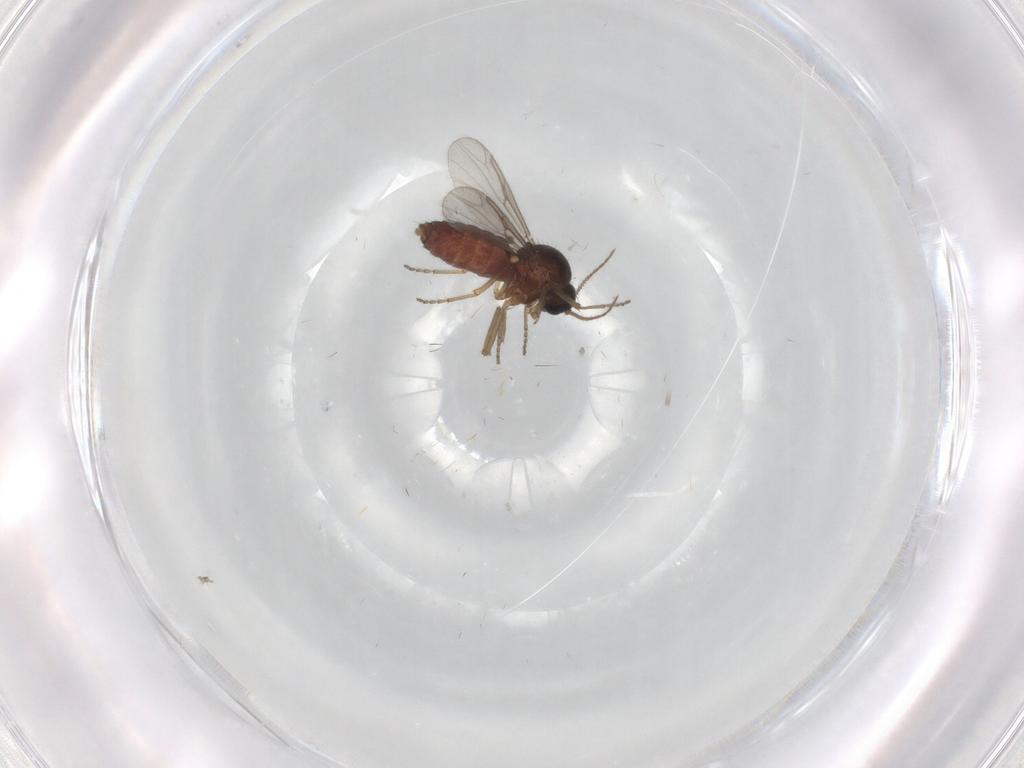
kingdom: Animalia
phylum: Arthropoda
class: Insecta
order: Diptera
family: Ceratopogonidae
